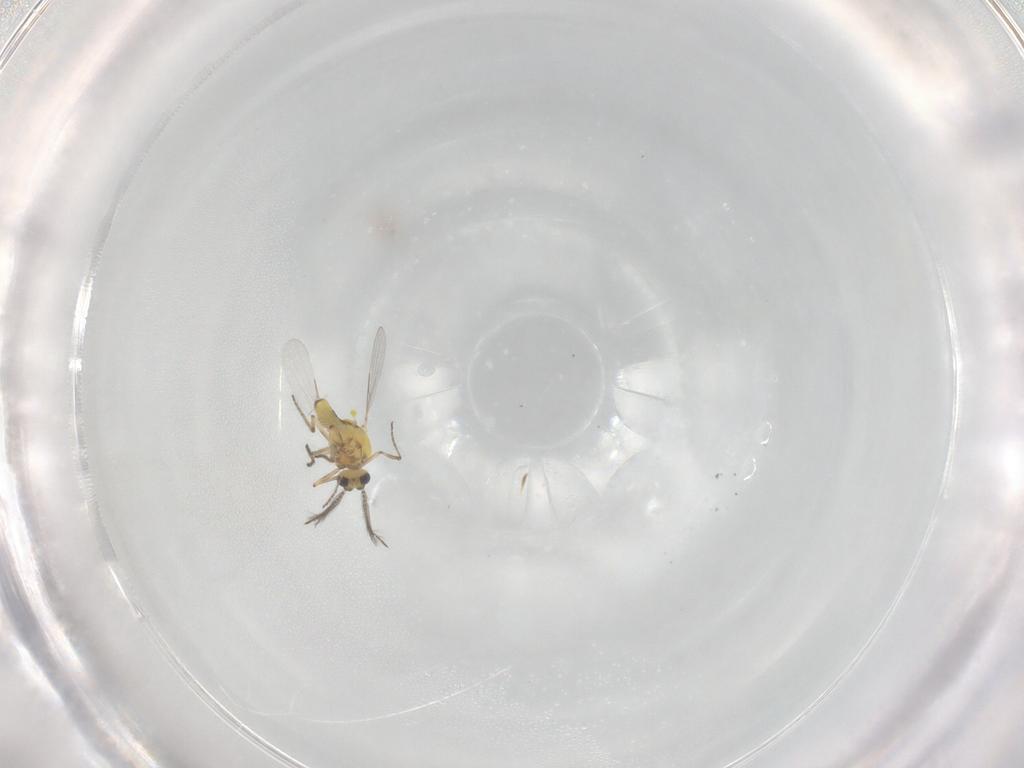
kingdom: Animalia
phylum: Arthropoda
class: Insecta
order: Diptera
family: Ceratopogonidae
